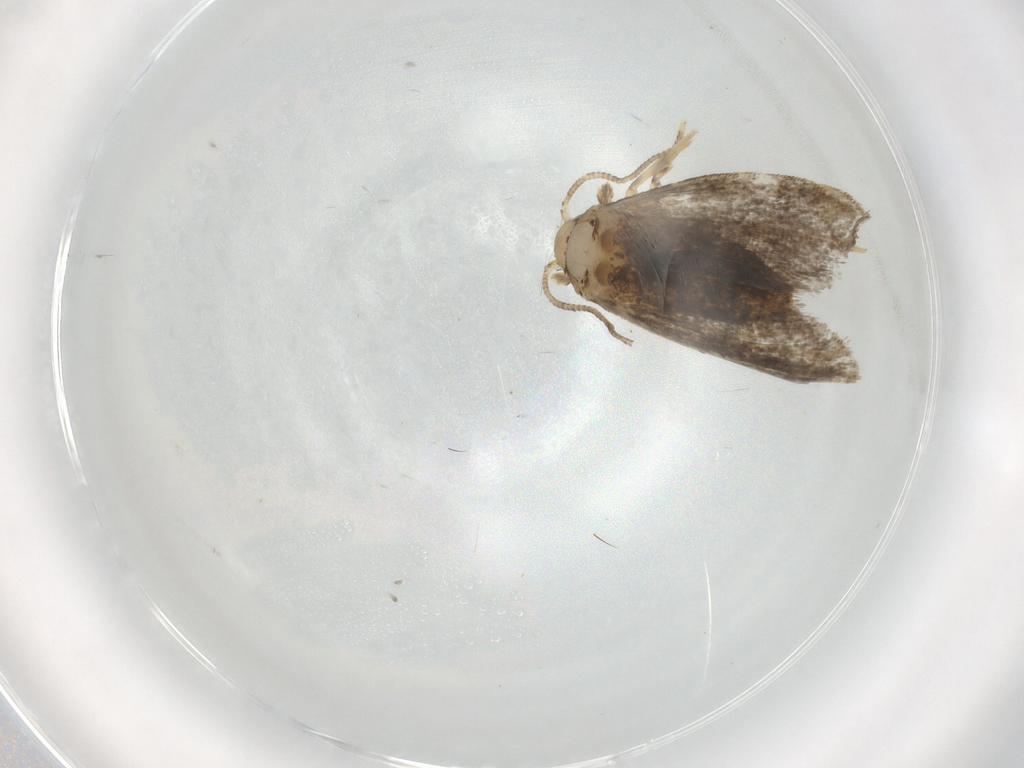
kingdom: Animalia
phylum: Arthropoda
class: Insecta
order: Lepidoptera
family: Dryadaulidae
